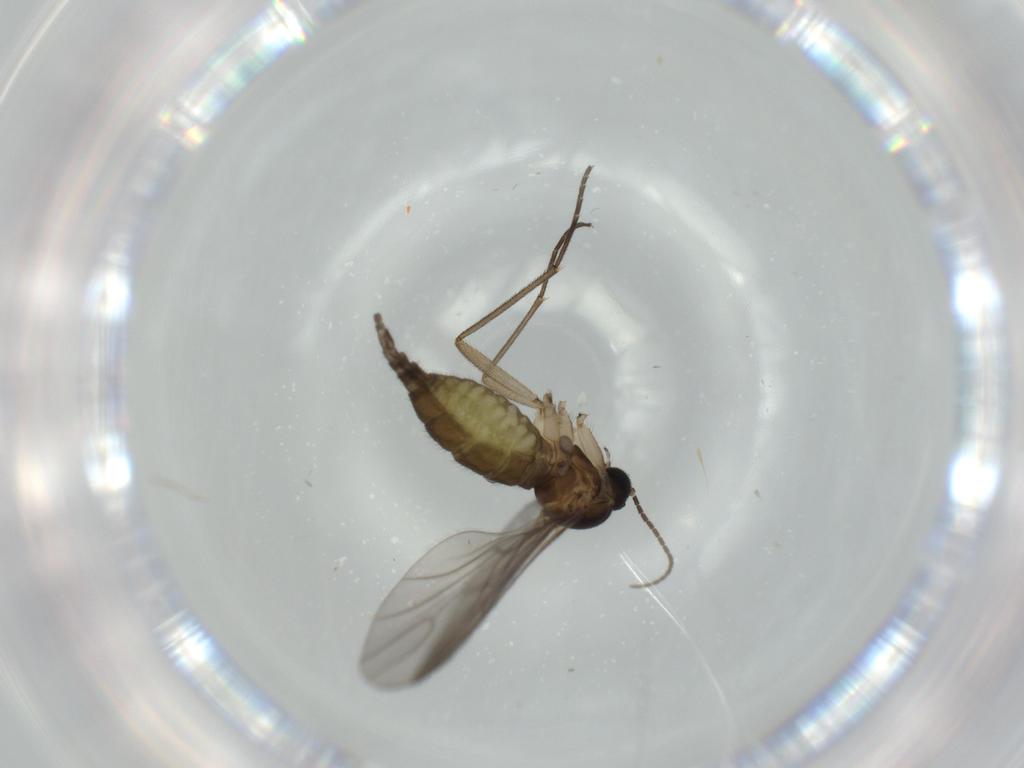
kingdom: Animalia
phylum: Arthropoda
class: Insecta
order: Diptera
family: Sciaridae
